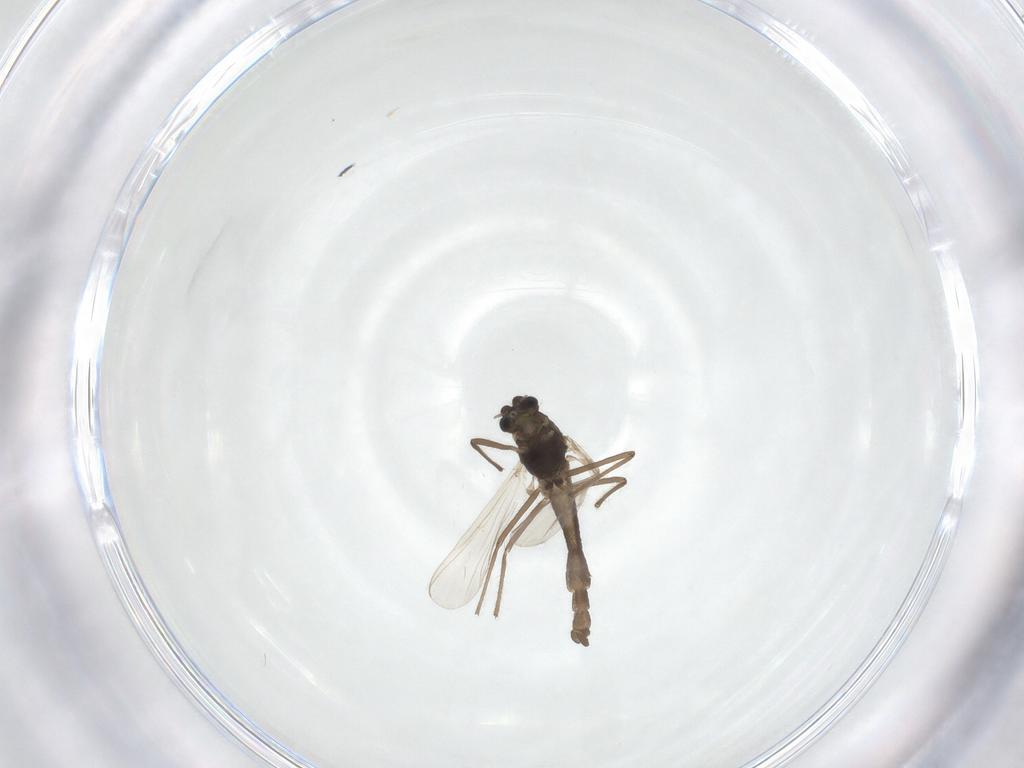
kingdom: Animalia
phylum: Arthropoda
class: Insecta
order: Diptera
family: Chironomidae
